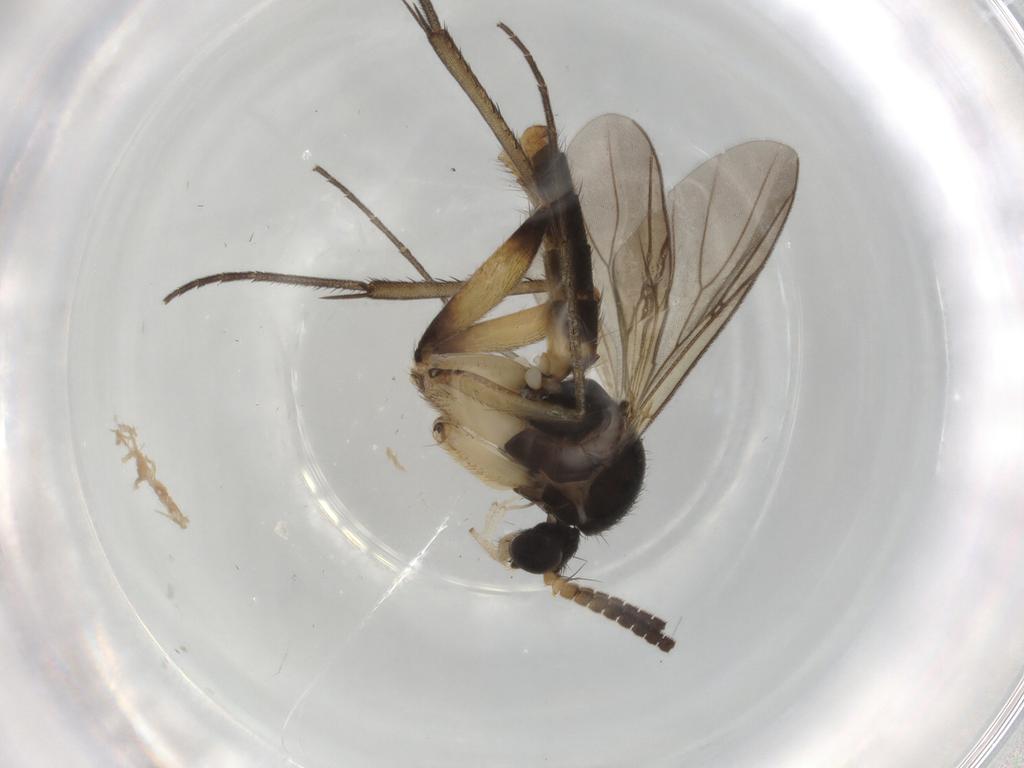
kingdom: Animalia
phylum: Arthropoda
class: Insecta
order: Diptera
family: Mycetophilidae
